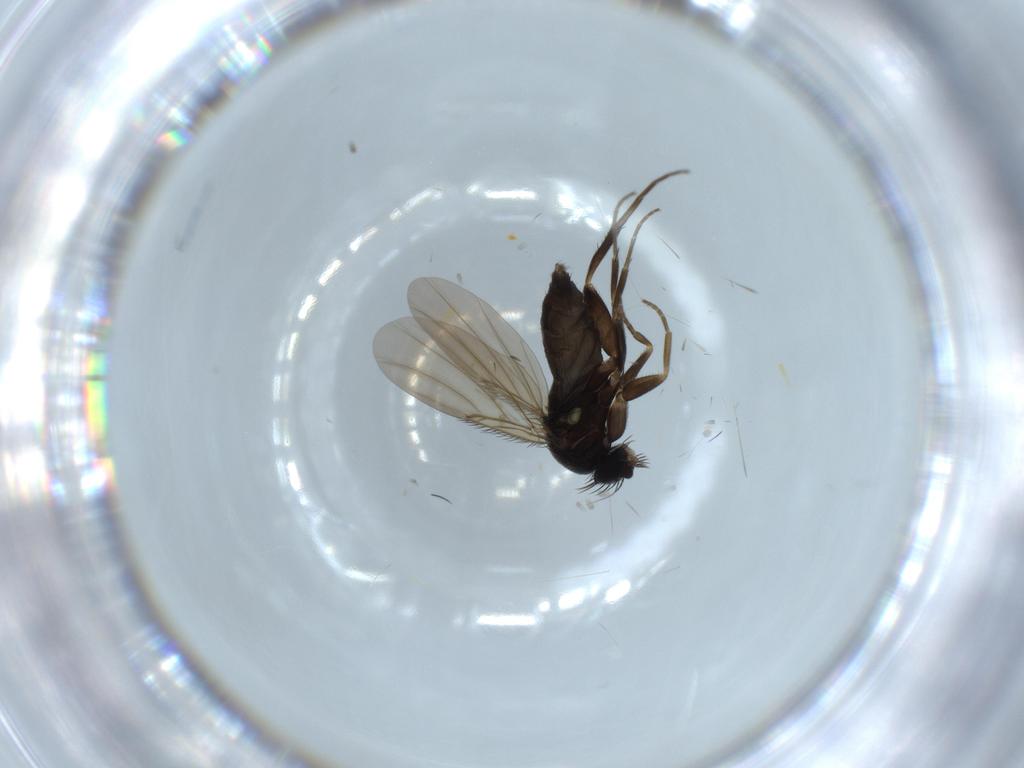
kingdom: Animalia
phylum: Arthropoda
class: Insecta
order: Diptera
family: Phoridae
